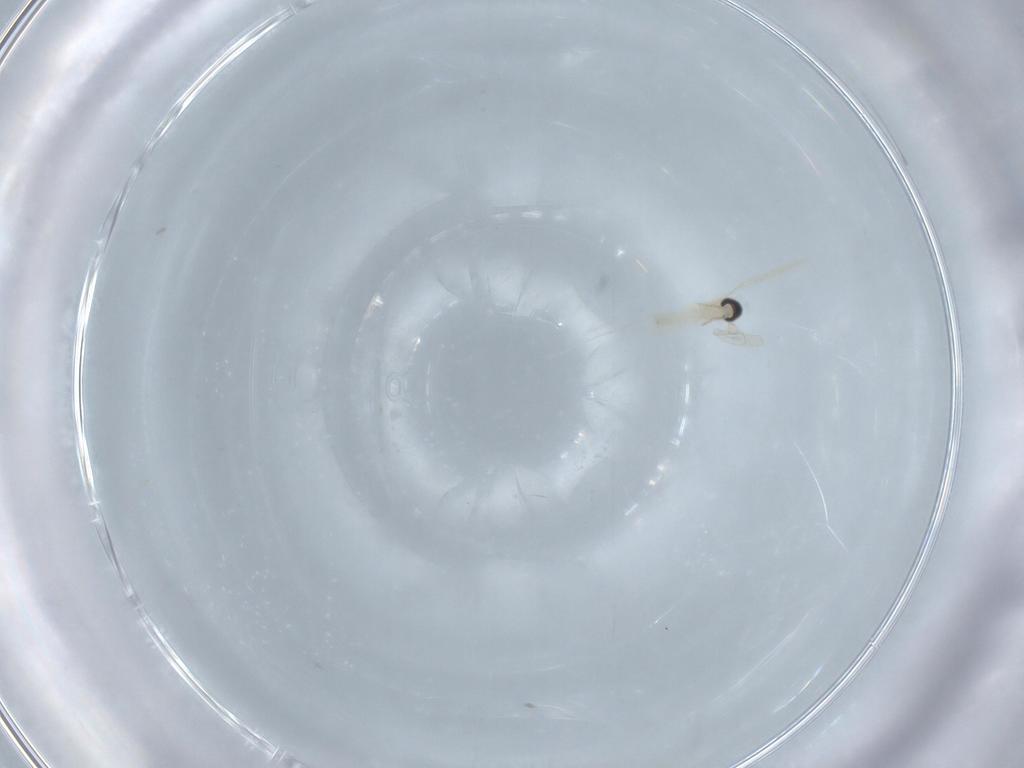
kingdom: Animalia
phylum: Arthropoda
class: Insecta
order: Diptera
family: Cecidomyiidae
